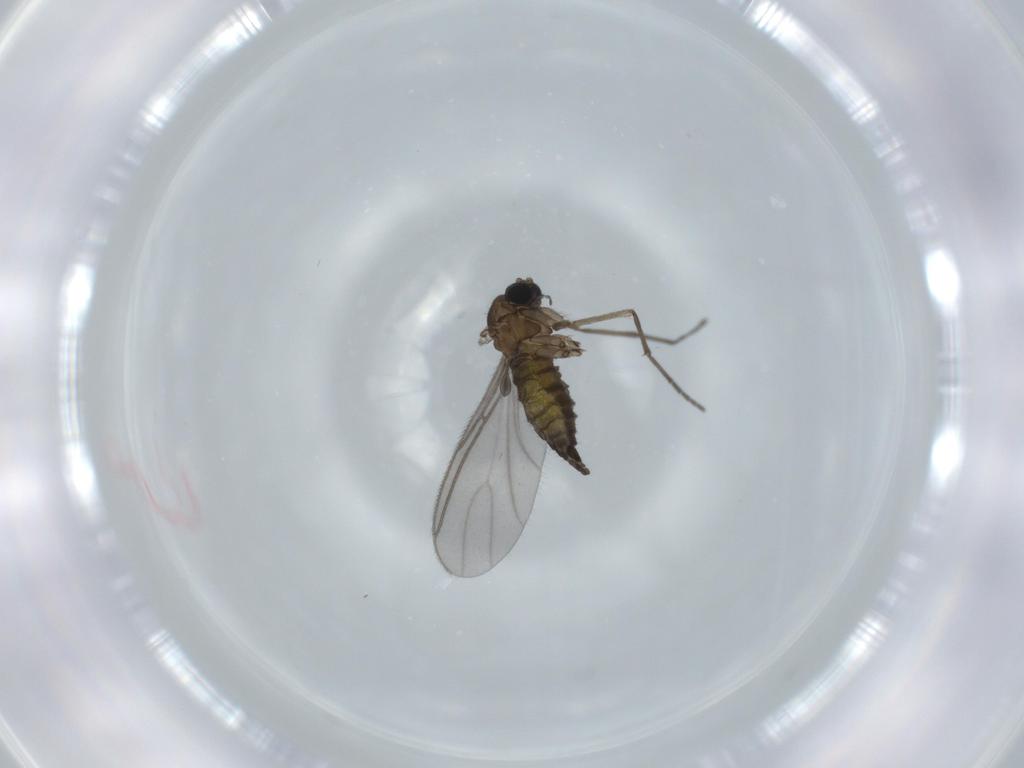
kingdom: Animalia
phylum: Arthropoda
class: Insecta
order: Diptera
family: Sciaridae
